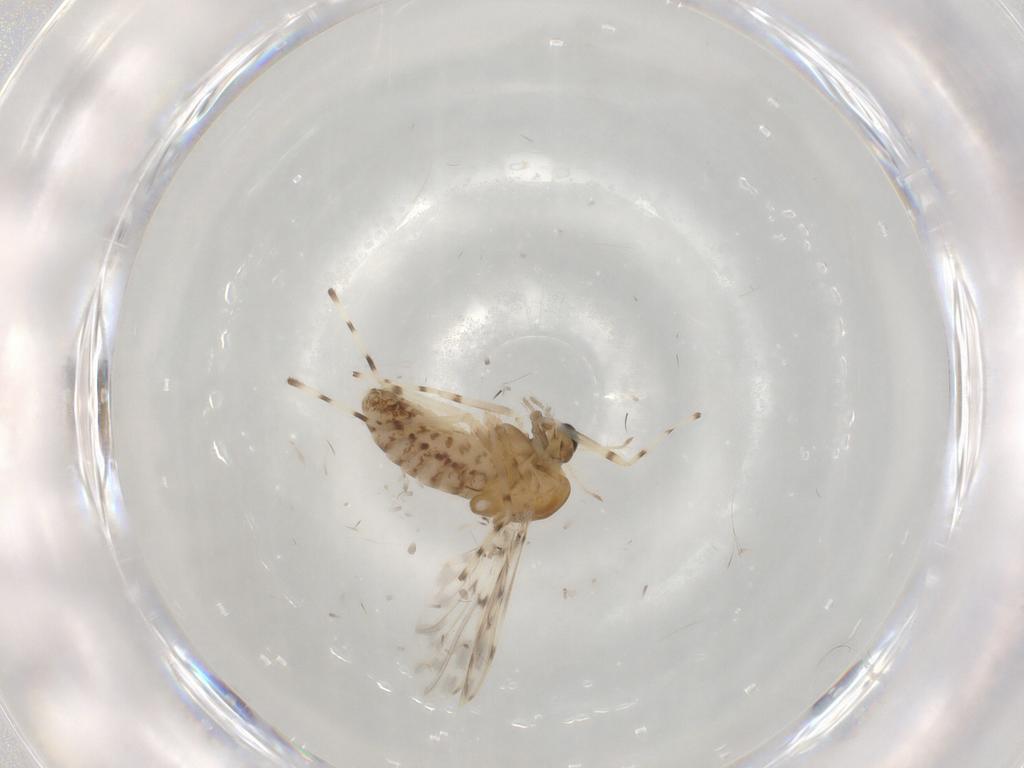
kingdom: Animalia
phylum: Arthropoda
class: Insecta
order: Diptera
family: Chironomidae
